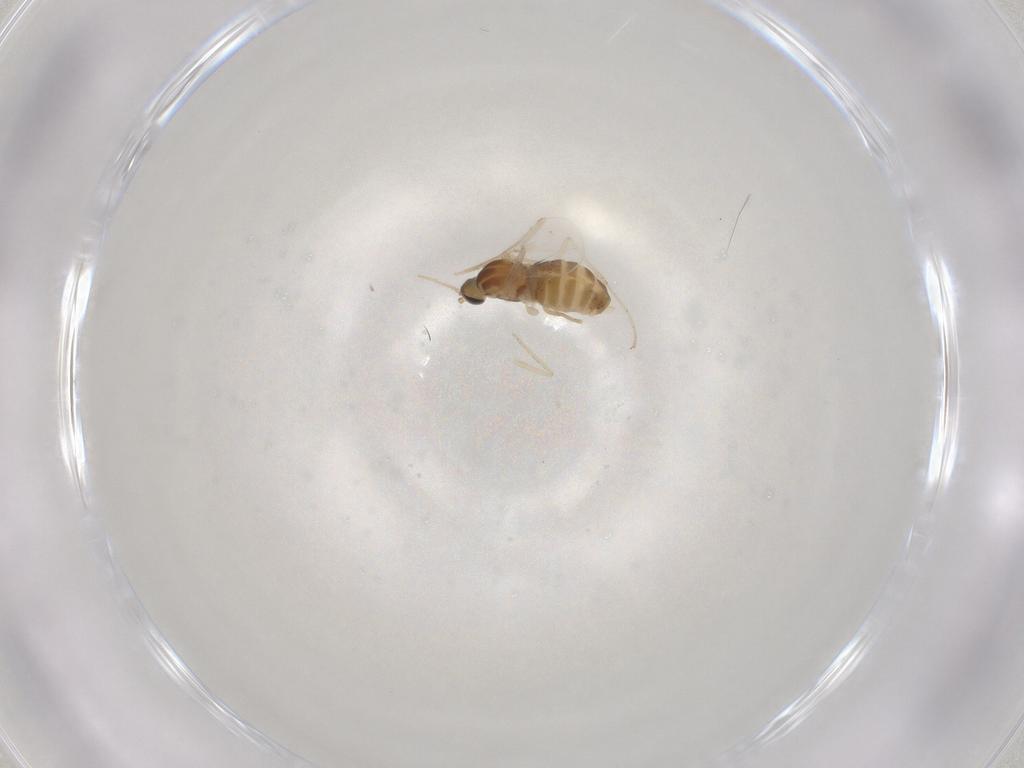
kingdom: Animalia
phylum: Arthropoda
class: Insecta
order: Diptera
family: Cecidomyiidae
